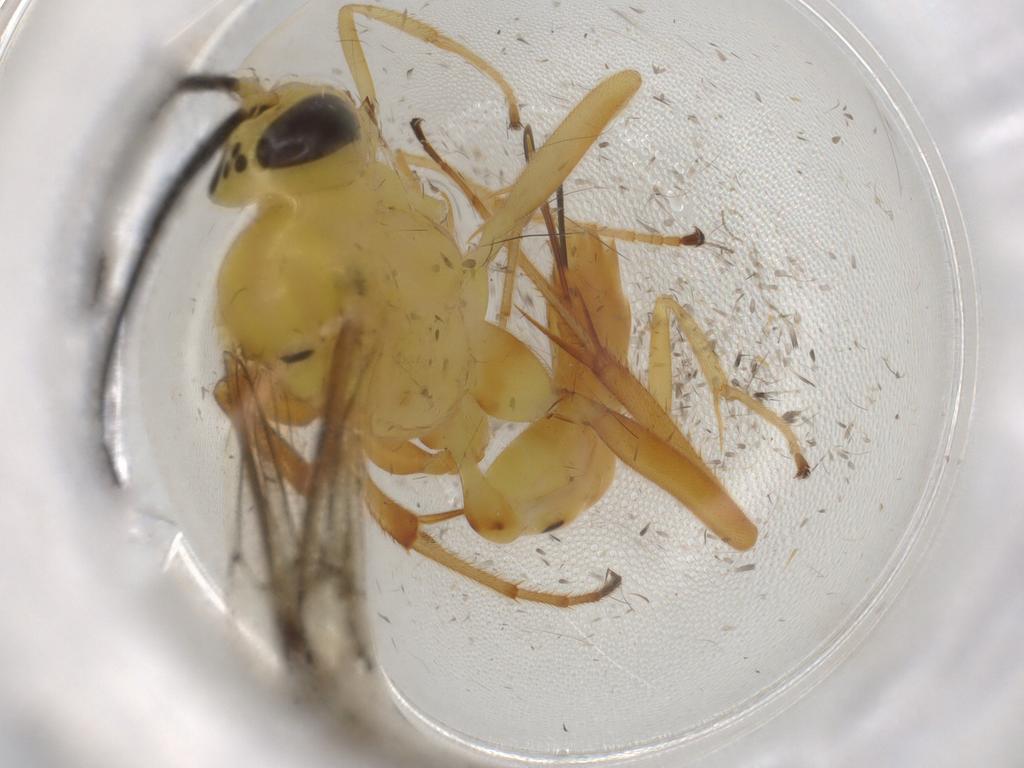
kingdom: Animalia
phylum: Arthropoda
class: Insecta
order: Hymenoptera
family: Ichneumonidae
